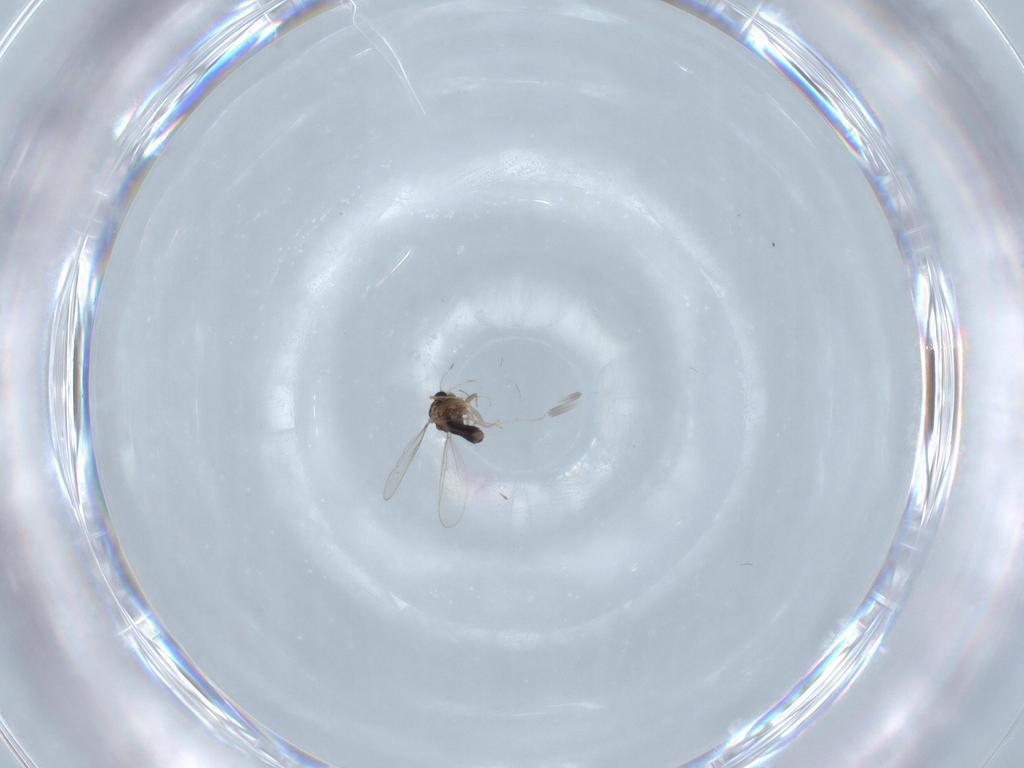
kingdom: Animalia
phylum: Arthropoda
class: Insecta
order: Diptera
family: Chironomidae
